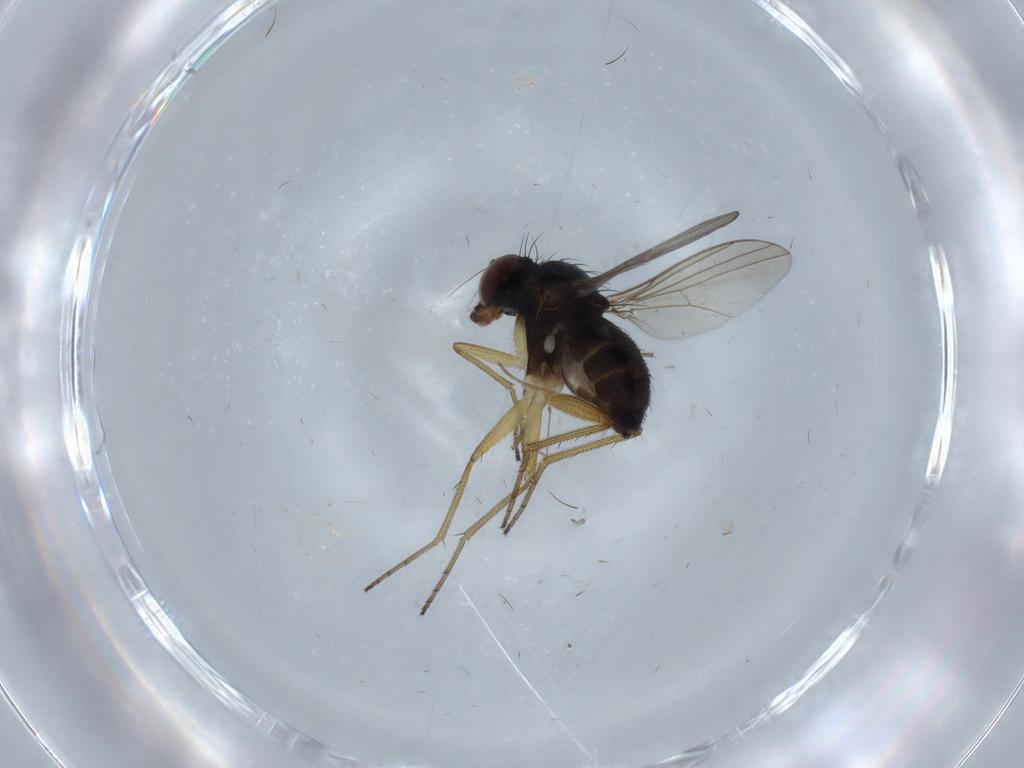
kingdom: Animalia
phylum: Arthropoda
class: Insecta
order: Diptera
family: Dolichopodidae
